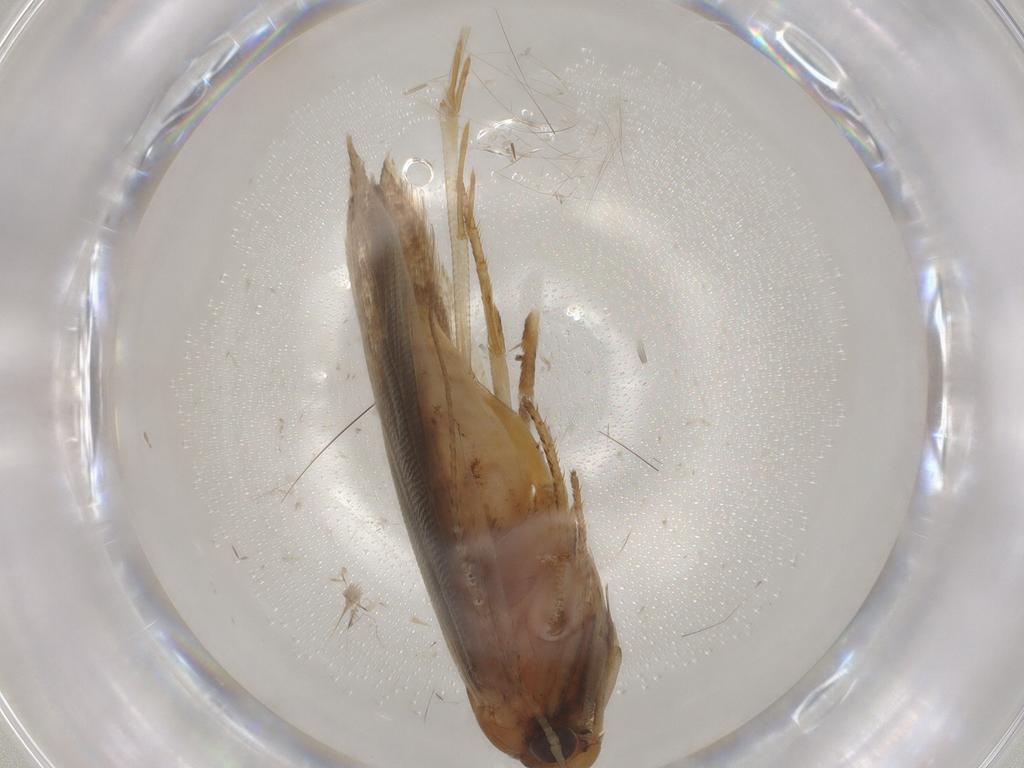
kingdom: Animalia
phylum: Arthropoda
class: Insecta
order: Lepidoptera
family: Gelechiidae
